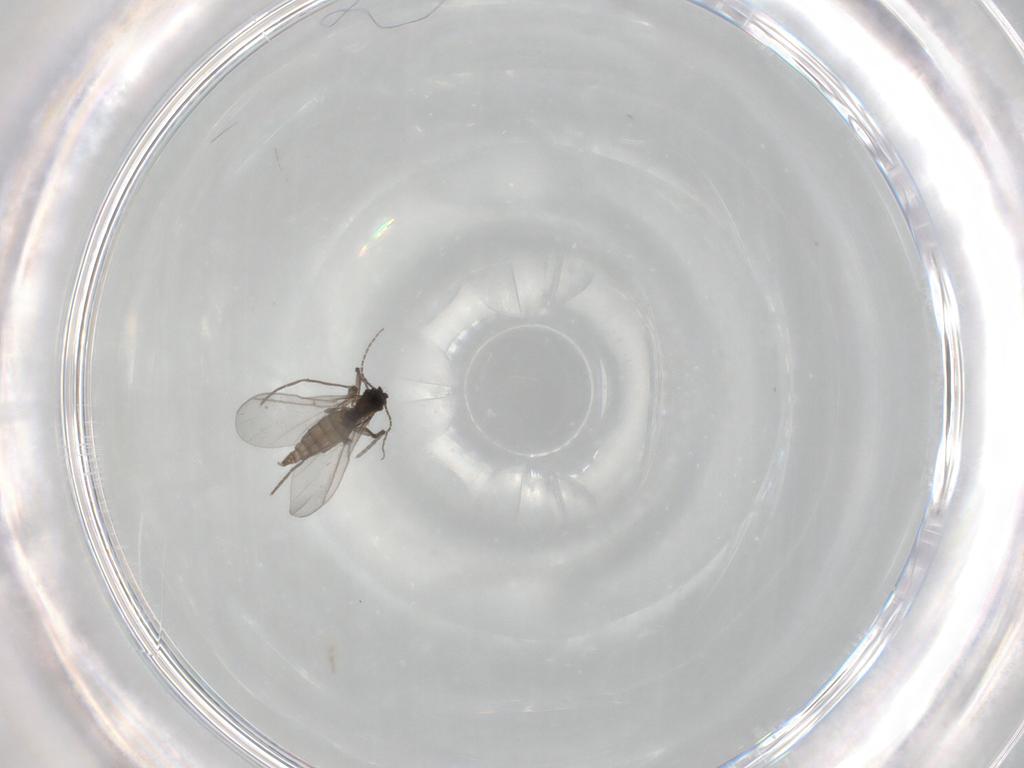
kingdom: Animalia
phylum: Arthropoda
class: Insecta
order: Diptera
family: Sciaridae
